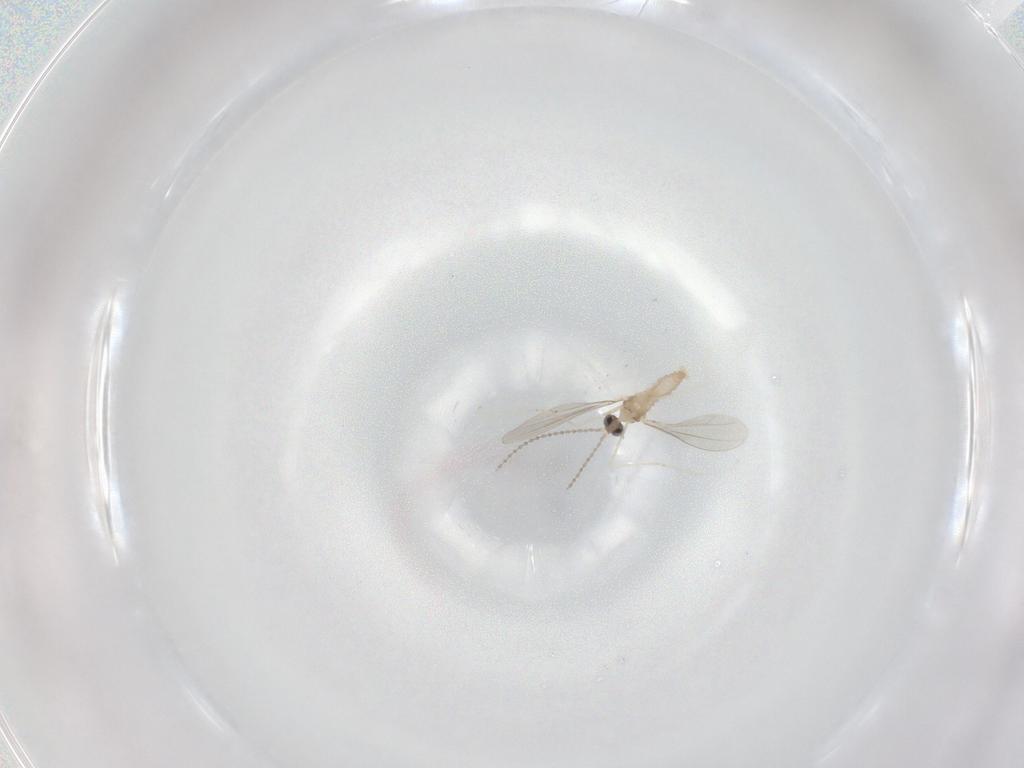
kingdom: Animalia
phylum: Arthropoda
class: Insecta
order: Diptera
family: Cecidomyiidae
